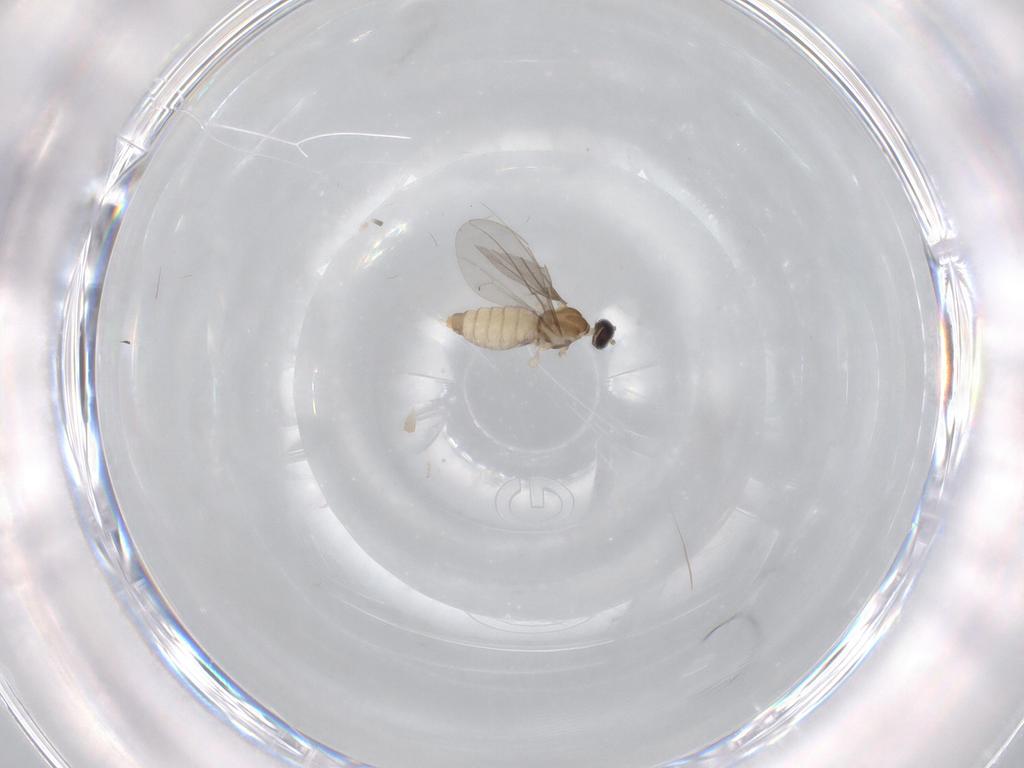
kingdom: Animalia
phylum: Arthropoda
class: Insecta
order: Diptera
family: Cecidomyiidae
